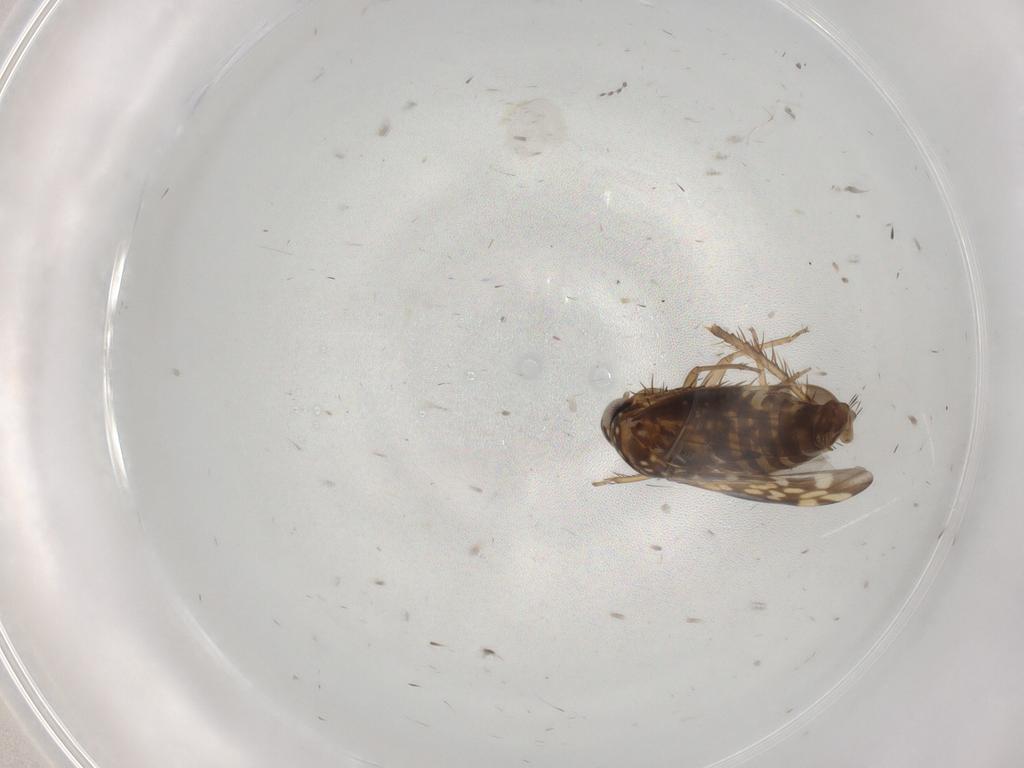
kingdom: Animalia
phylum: Arthropoda
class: Insecta
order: Hemiptera
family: Cicadellidae
